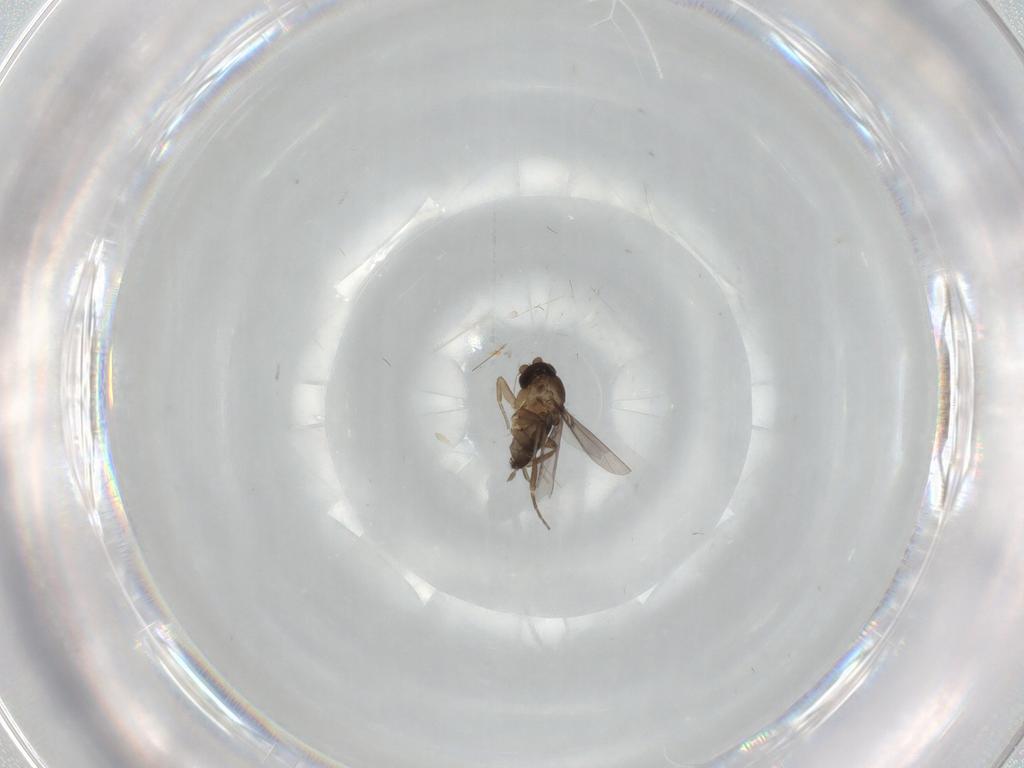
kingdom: Animalia
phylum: Arthropoda
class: Insecta
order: Diptera
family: Phoridae
